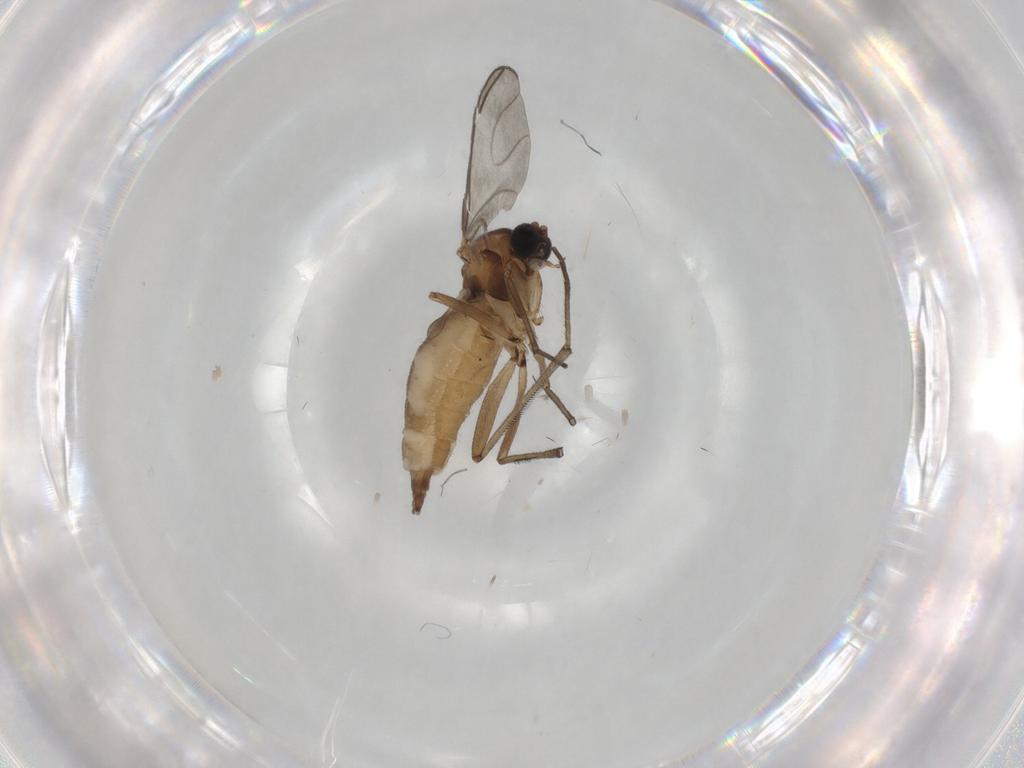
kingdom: Animalia
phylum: Arthropoda
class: Insecta
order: Diptera
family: Sciaridae
